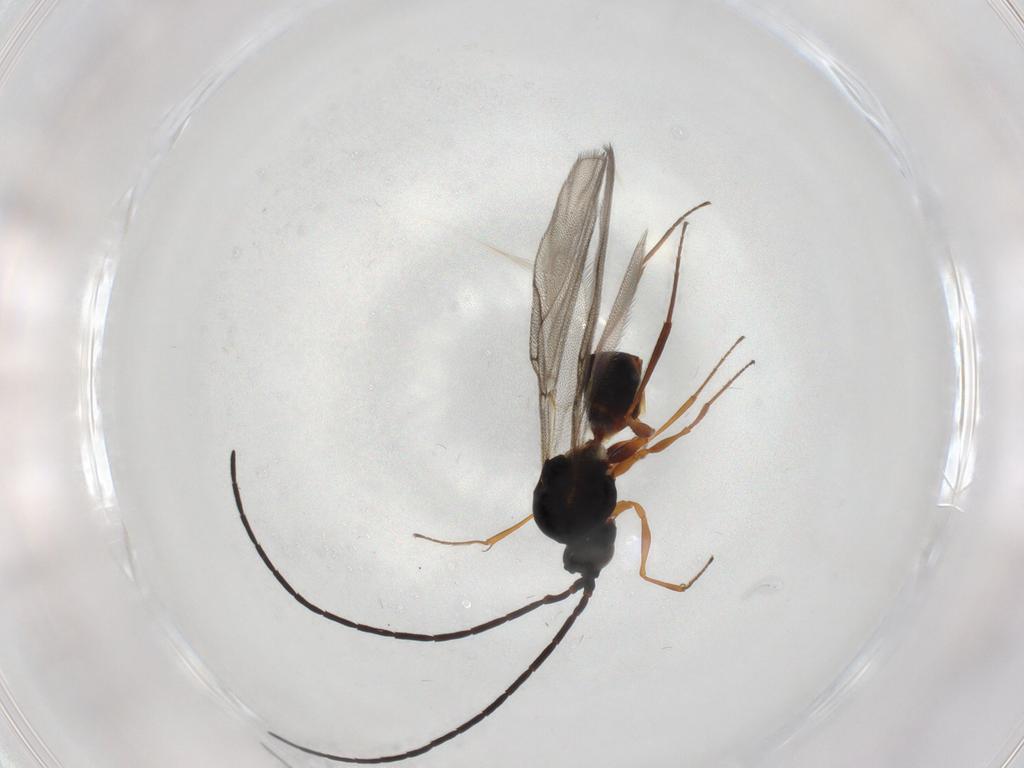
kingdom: Animalia
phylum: Arthropoda
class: Insecta
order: Hymenoptera
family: Figitidae
